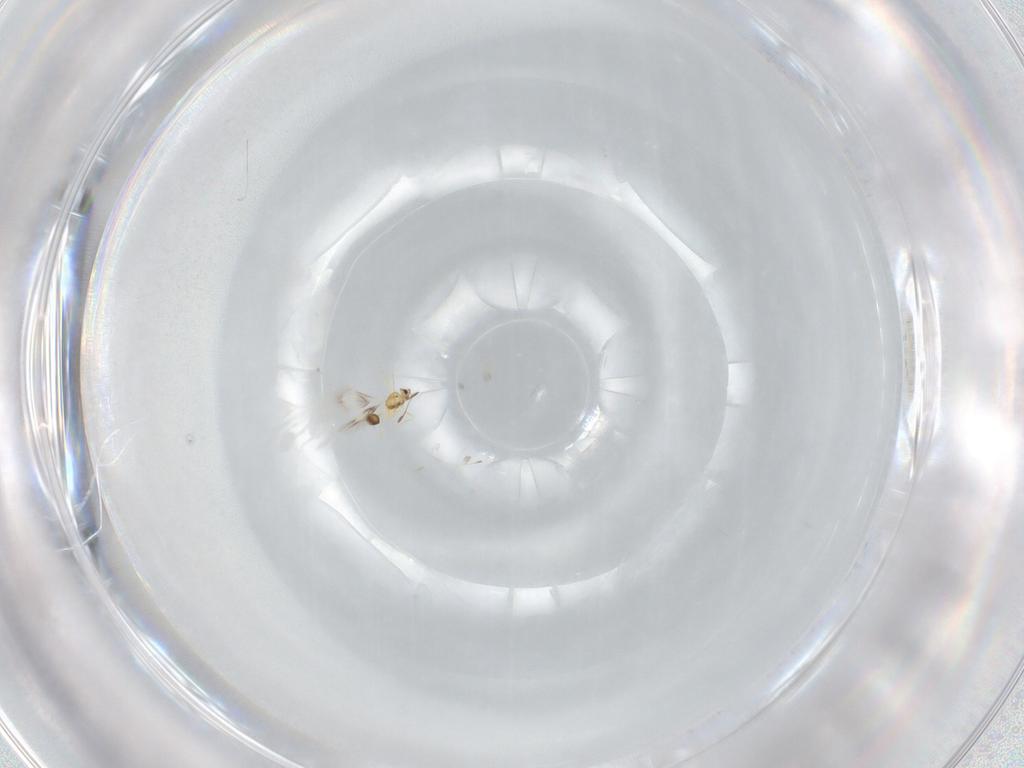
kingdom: Animalia
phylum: Arthropoda
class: Insecta
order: Hymenoptera
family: Mymarommatidae
